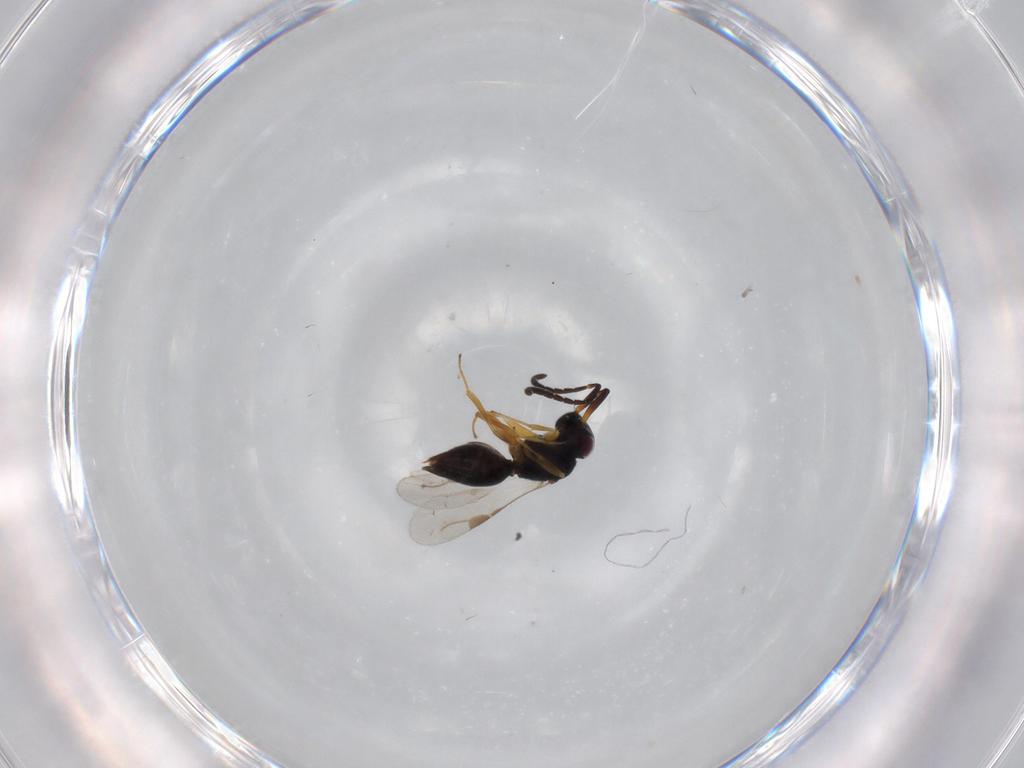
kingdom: Animalia
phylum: Arthropoda
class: Insecta
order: Hymenoptera
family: Megaspilidae
